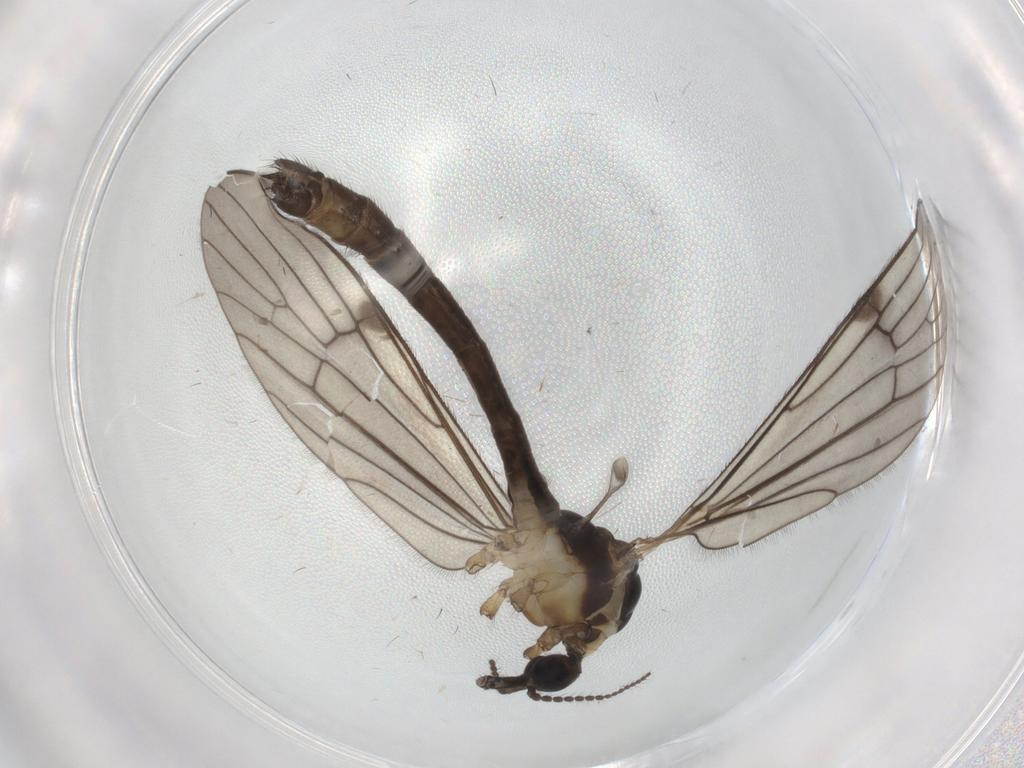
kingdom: Animalia
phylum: Arthropoda
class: Insecta
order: Diptera
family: Limoniidae
